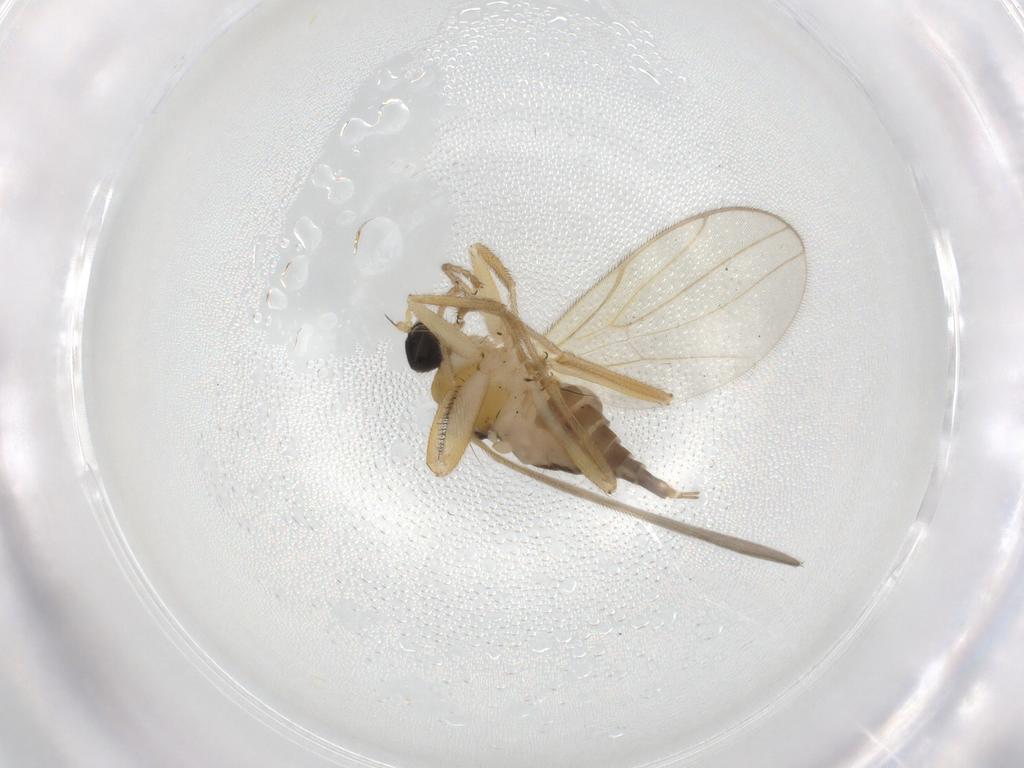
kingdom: Animalia
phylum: Arthropoda
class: Insecta
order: Diptera
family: Hybotidae
